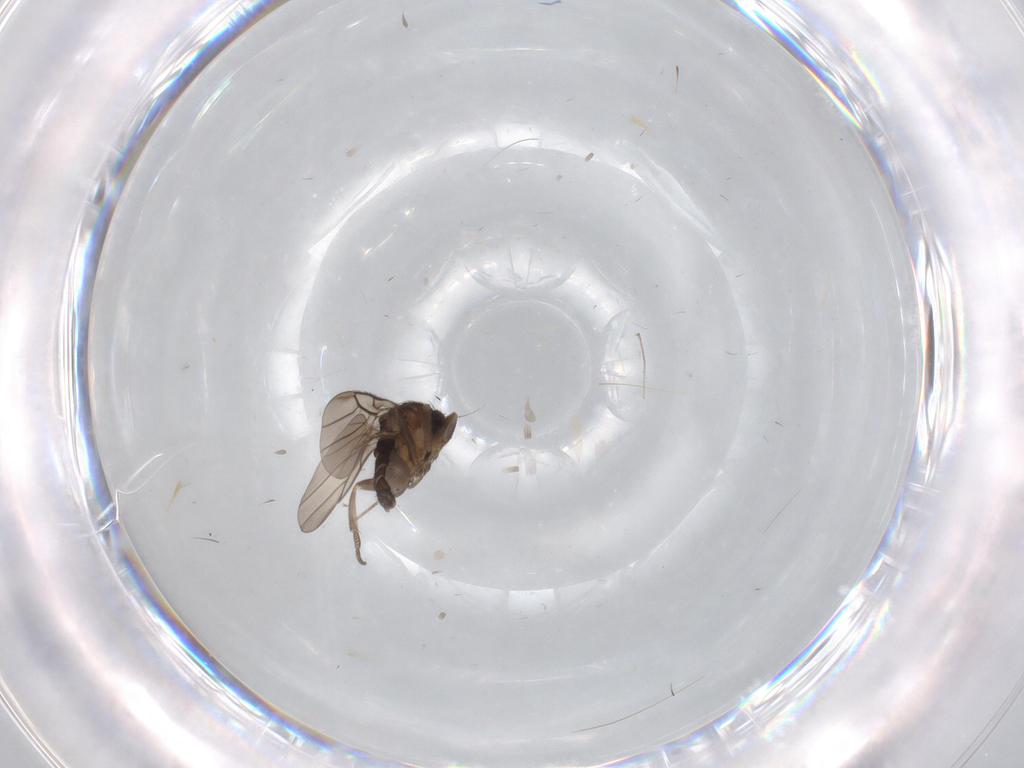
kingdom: Animalia
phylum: Arthropoda
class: Insecta
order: Diptera
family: Cecidomyiidae
